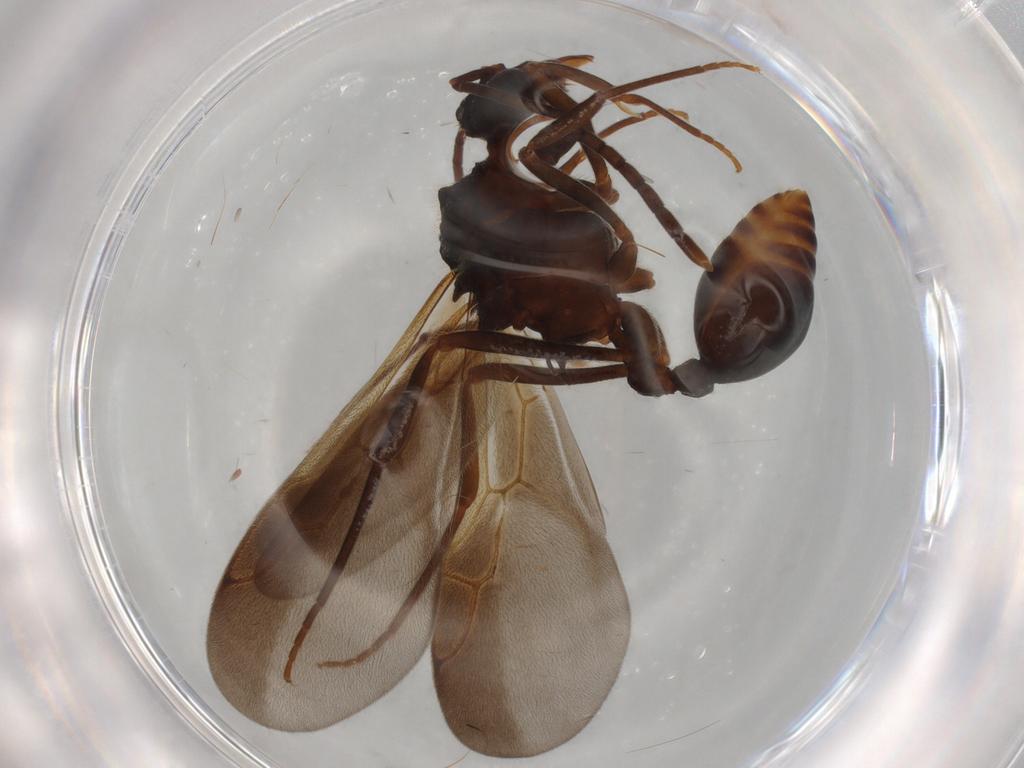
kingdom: Animalia
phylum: Arthropoda
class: Insecta
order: Hymenoptera
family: Formicidae
